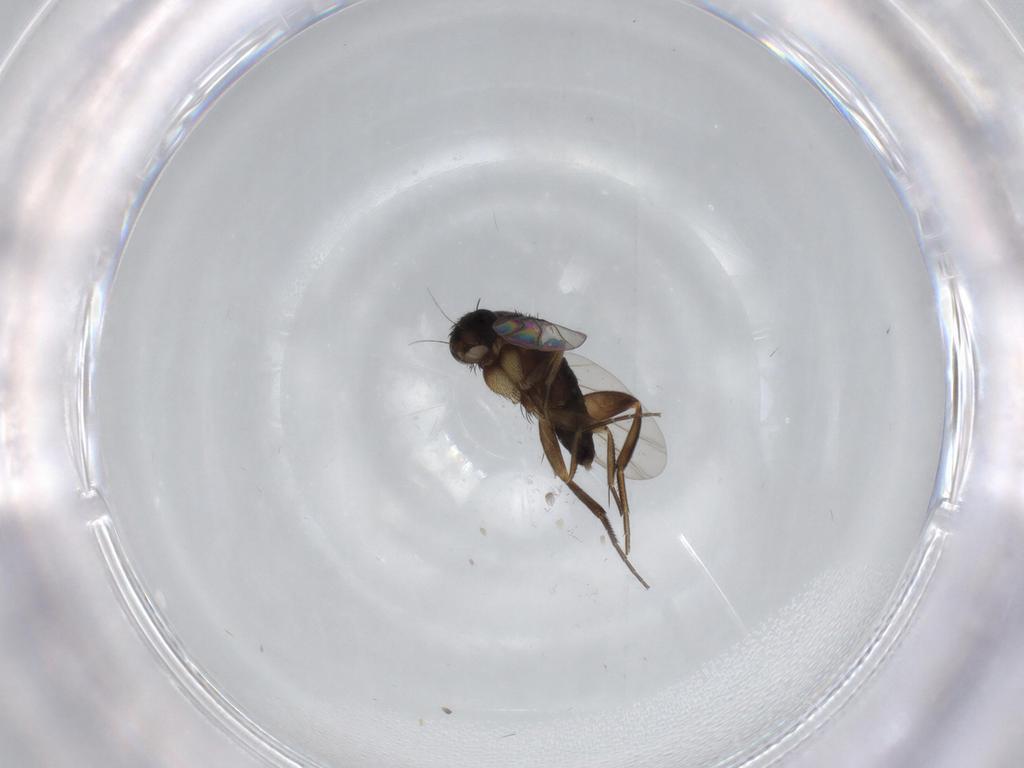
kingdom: Animalia
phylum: Arthropoda
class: Insecta
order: Diptera
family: Phoridae
